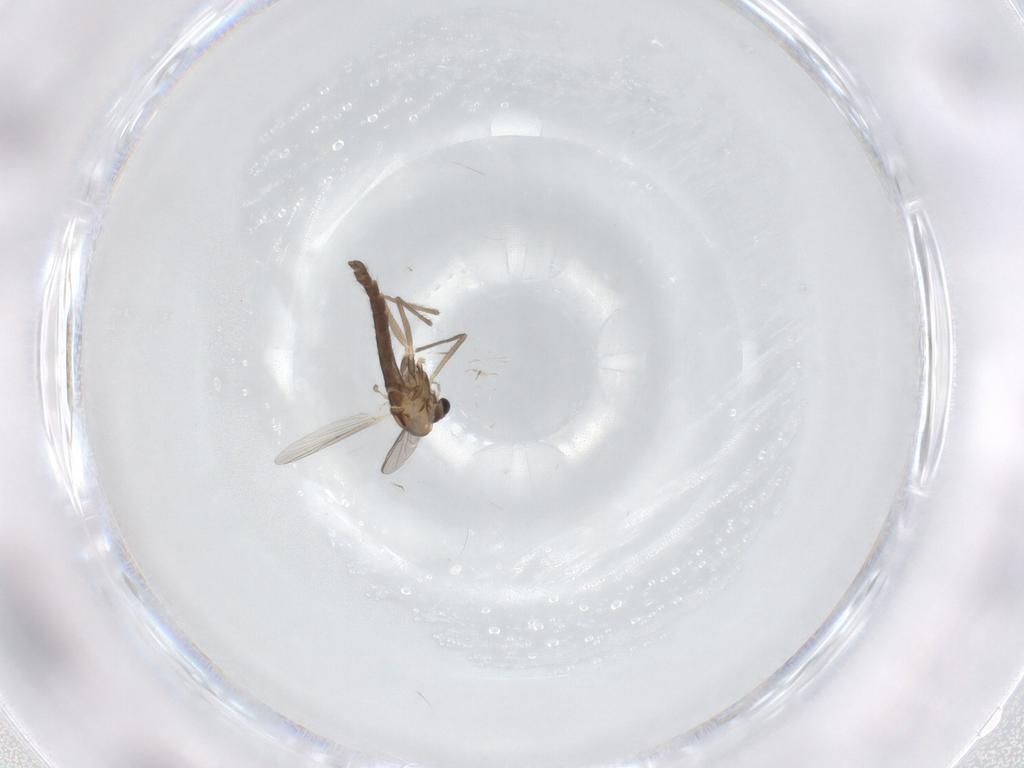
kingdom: Animalia
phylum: Arthropoda
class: Insecta
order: Diptera
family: Chironomidae
